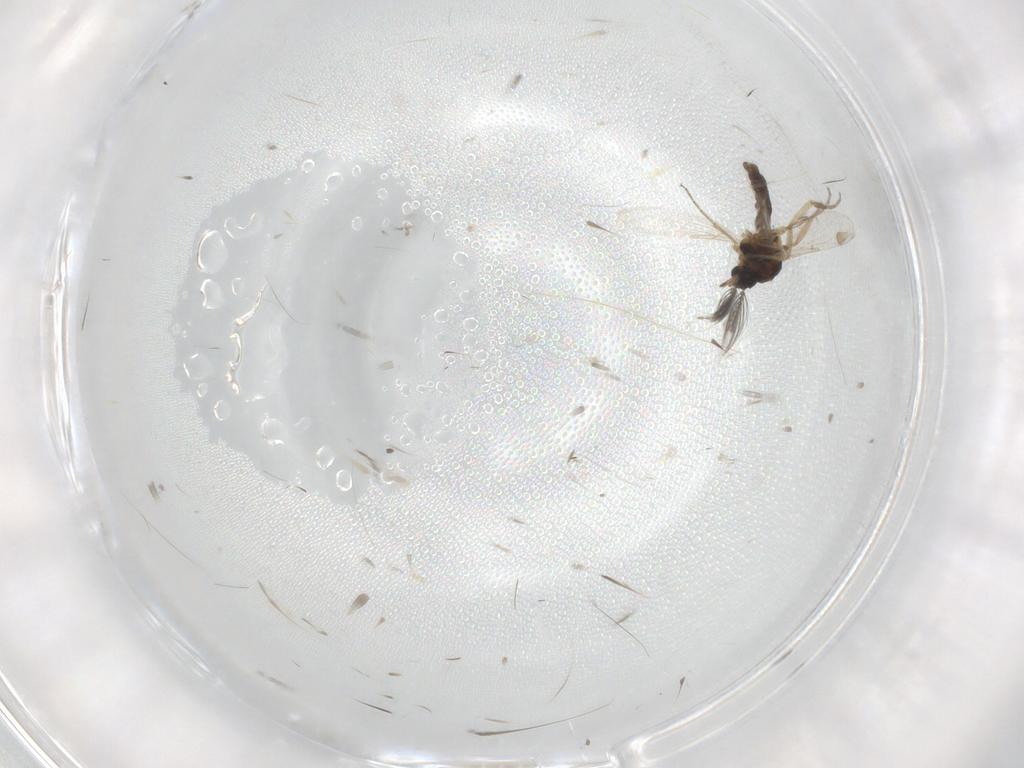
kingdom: Animalia
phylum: Arthropoda
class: Insecta
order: Diptera
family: Ceratopogonidae
